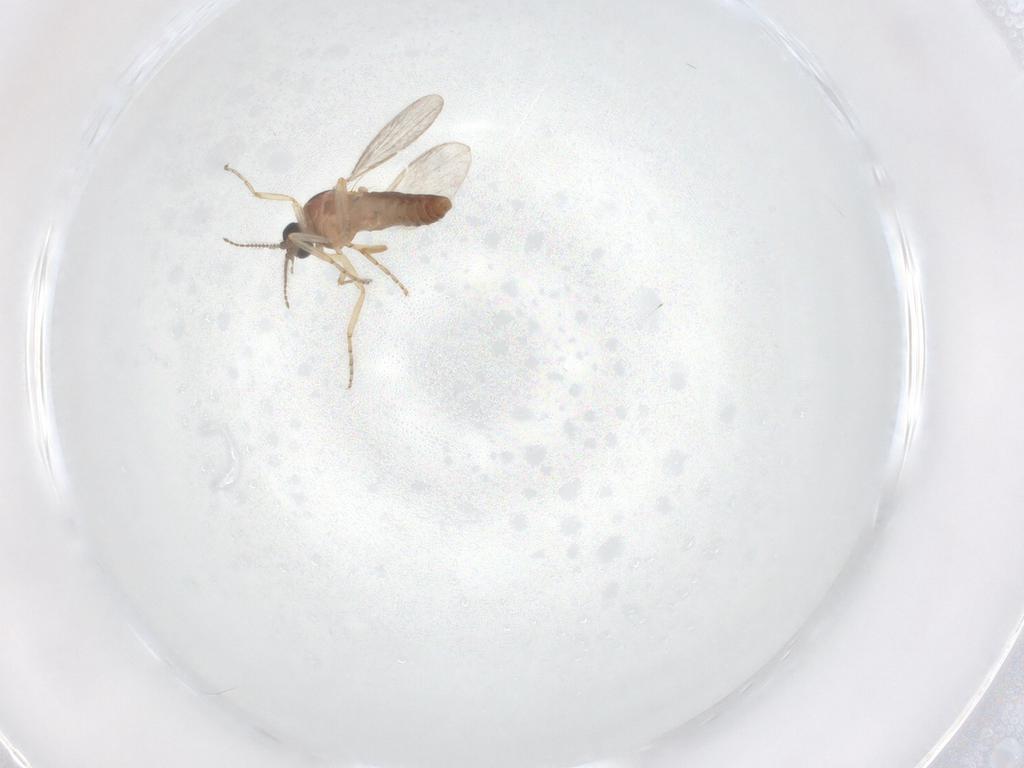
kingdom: Animalia
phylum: Arthropoda
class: Insecta
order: Diptera
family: Ceratopogonidae
